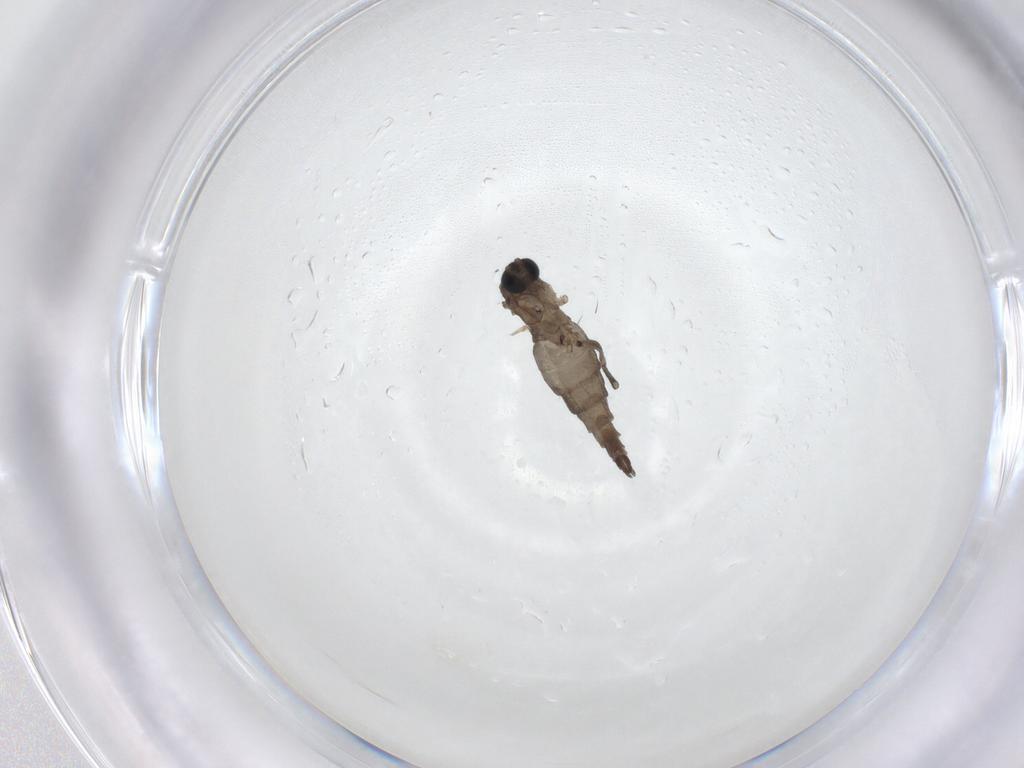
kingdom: Animalia
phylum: Arthropoda
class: Insecta
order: Diptera
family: Sciaridae
